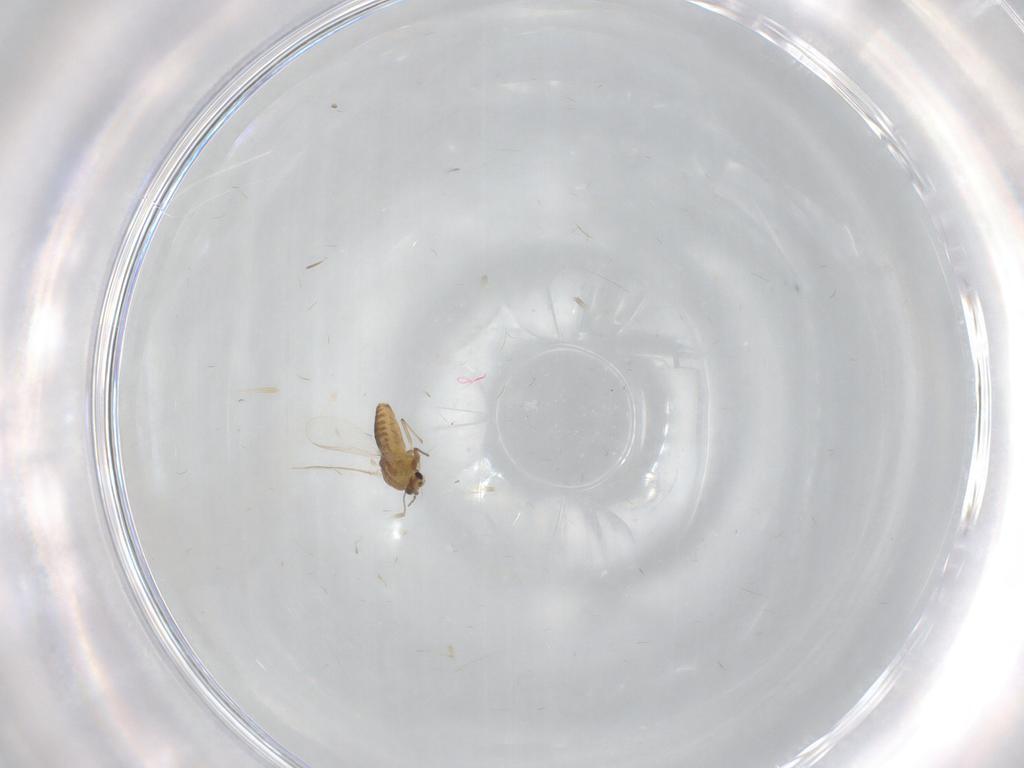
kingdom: Animalia
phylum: Arthropoda
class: Insecta
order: Diptera
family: Chironomidae
